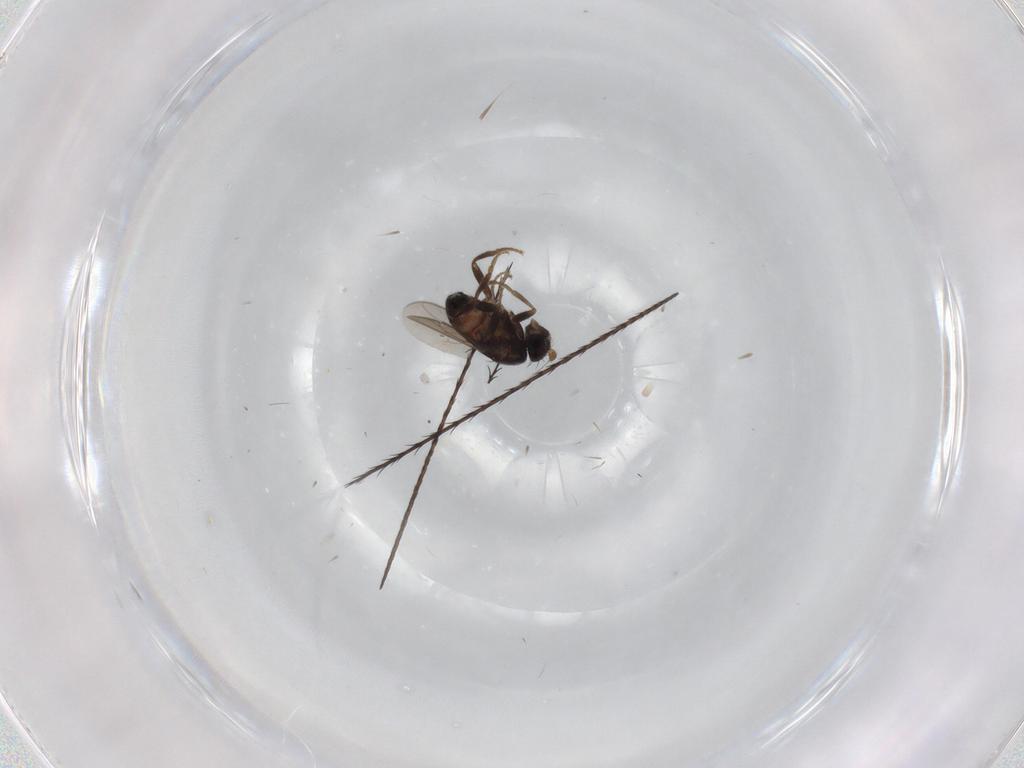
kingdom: Animalia
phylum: Arthropoda
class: Insecta
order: Diptera
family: Sphaeroceridae
